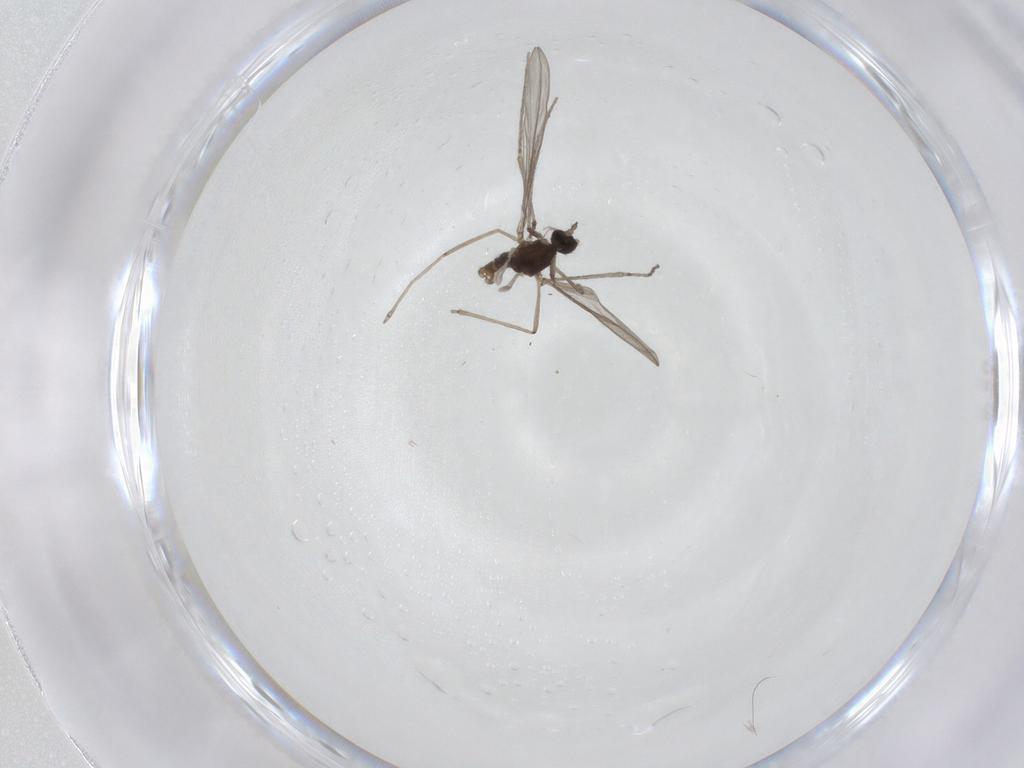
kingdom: Animalia
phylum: Arthropoda
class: Insecta
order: Diptera
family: Cecidomyiidae
